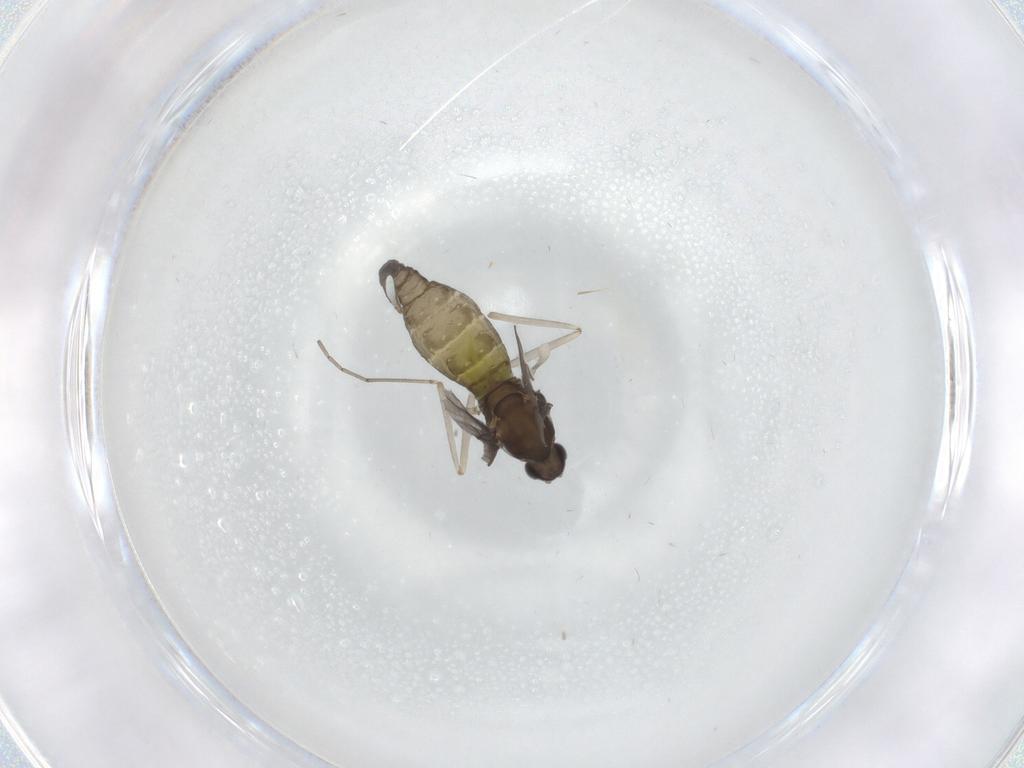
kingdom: Animalia
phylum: Arthropoda
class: Insecta
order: Diptera
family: Cecidomyiidae
